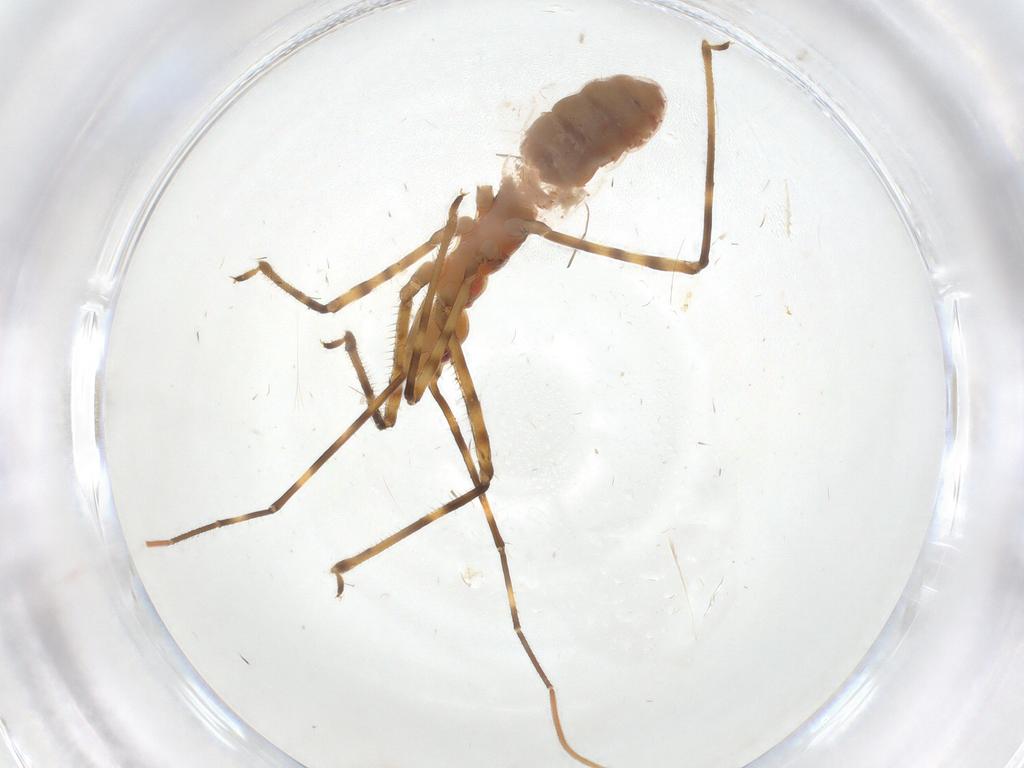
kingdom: Animalia
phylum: Arthropoda
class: Insecta
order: Hemiptera
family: Reduviidae
